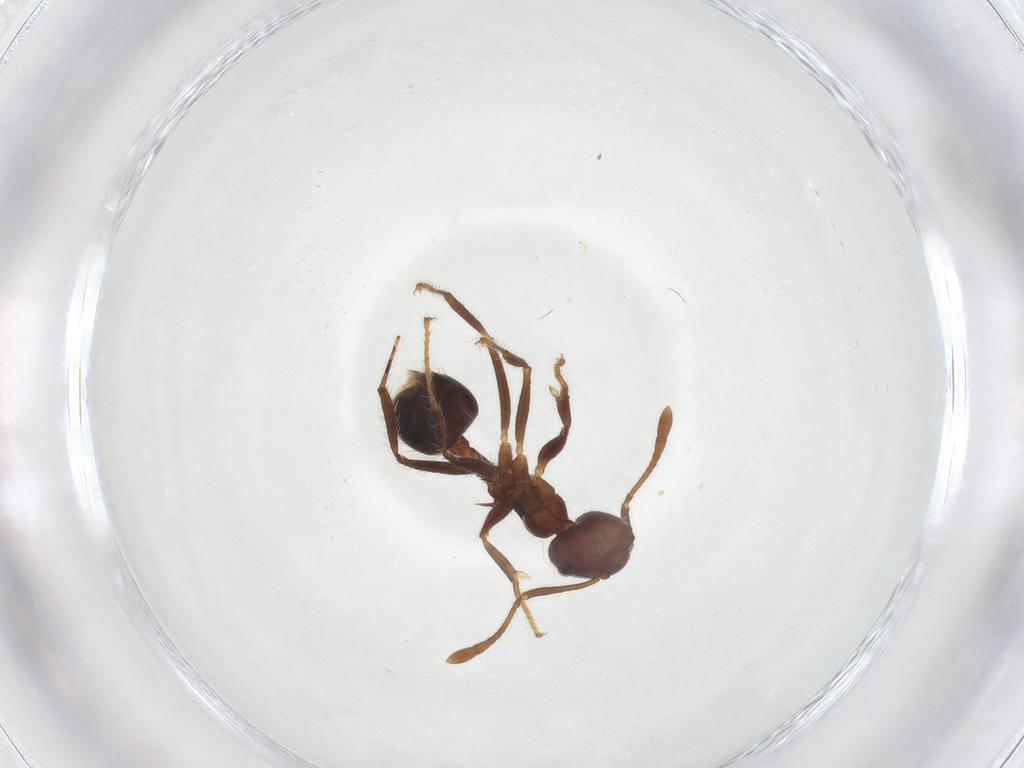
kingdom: Animalia
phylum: Arthropoda
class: Insecta
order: Hymenoptera
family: Formicidae
